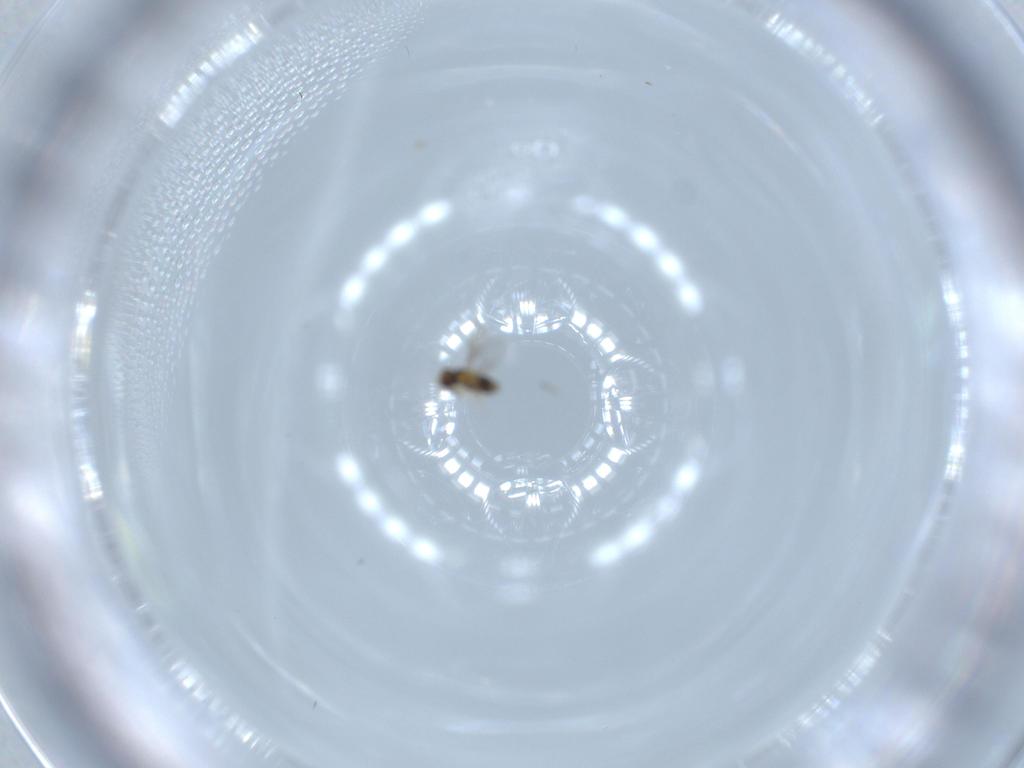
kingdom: Animalia
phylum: Arthropoda
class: Insecta
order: Hymenoptera
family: Aphelinidae
